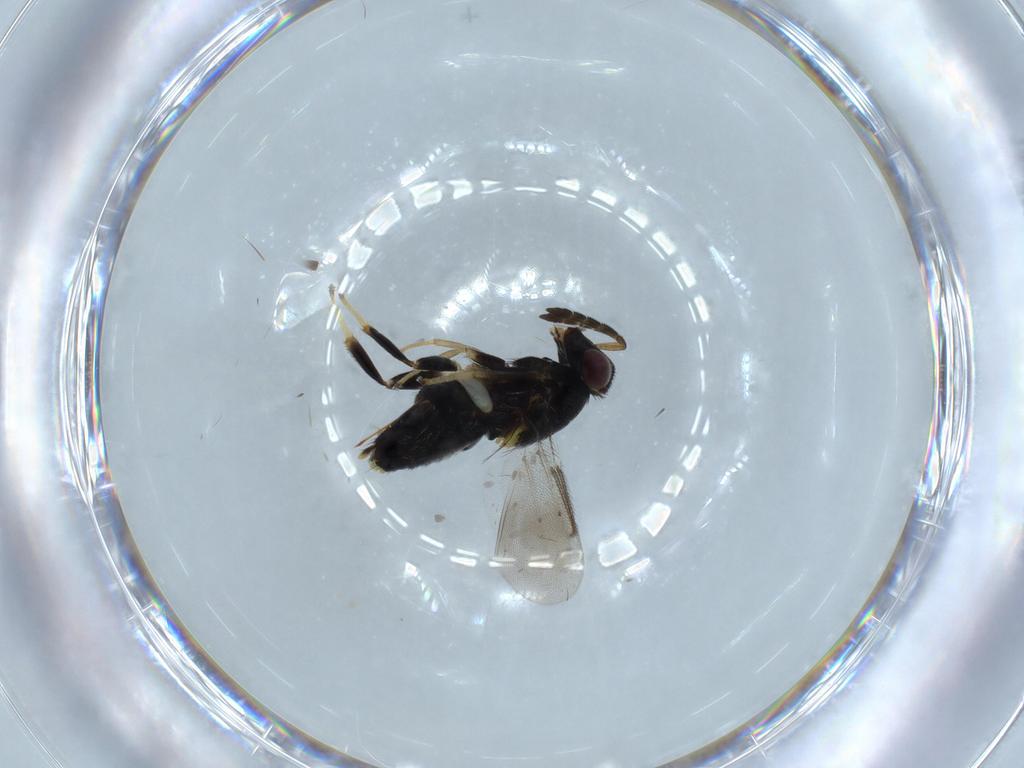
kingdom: Animalia
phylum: Arthropoda
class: Insecta
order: Hymenoptera
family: Aphelinidae
